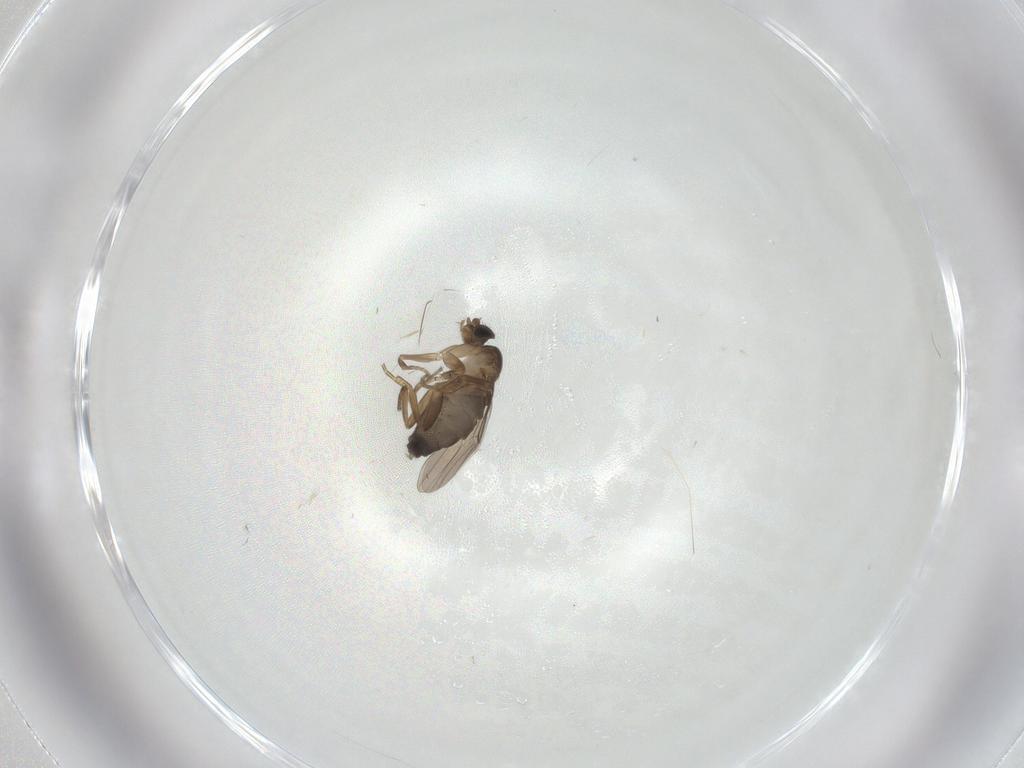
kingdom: Animalia
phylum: Arthropoda
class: Insecta
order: Diptera
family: Phoridae
